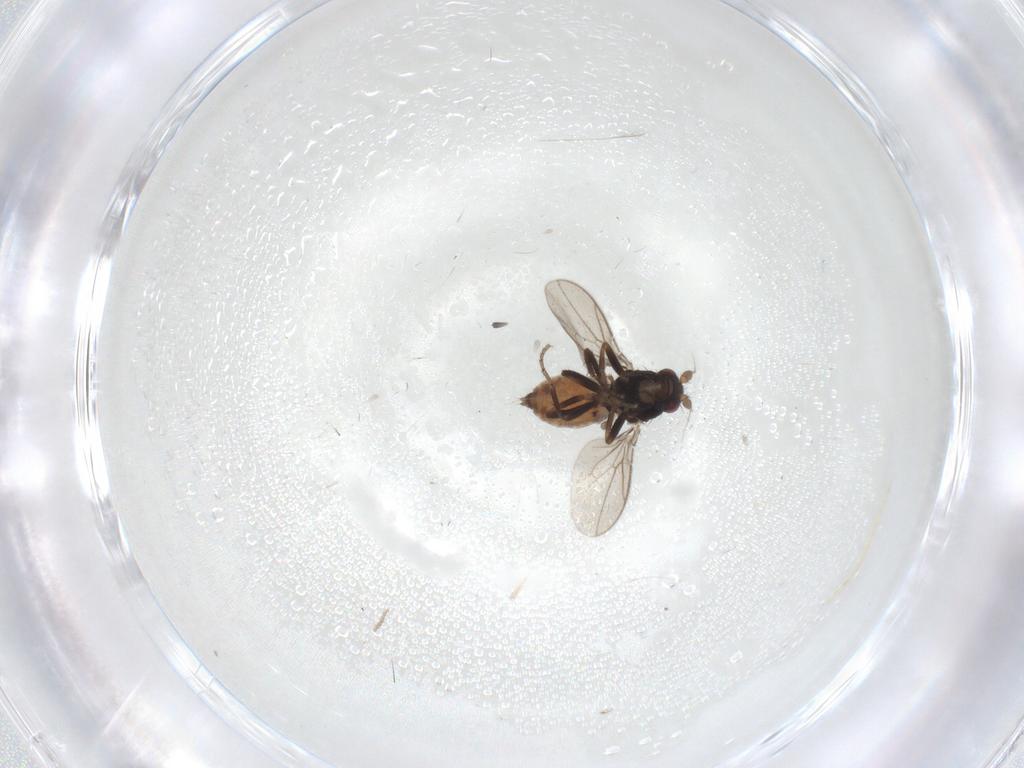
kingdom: Animalia
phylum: Arthropoda
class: Insecta
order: Diptera
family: Sphaeroceridae
